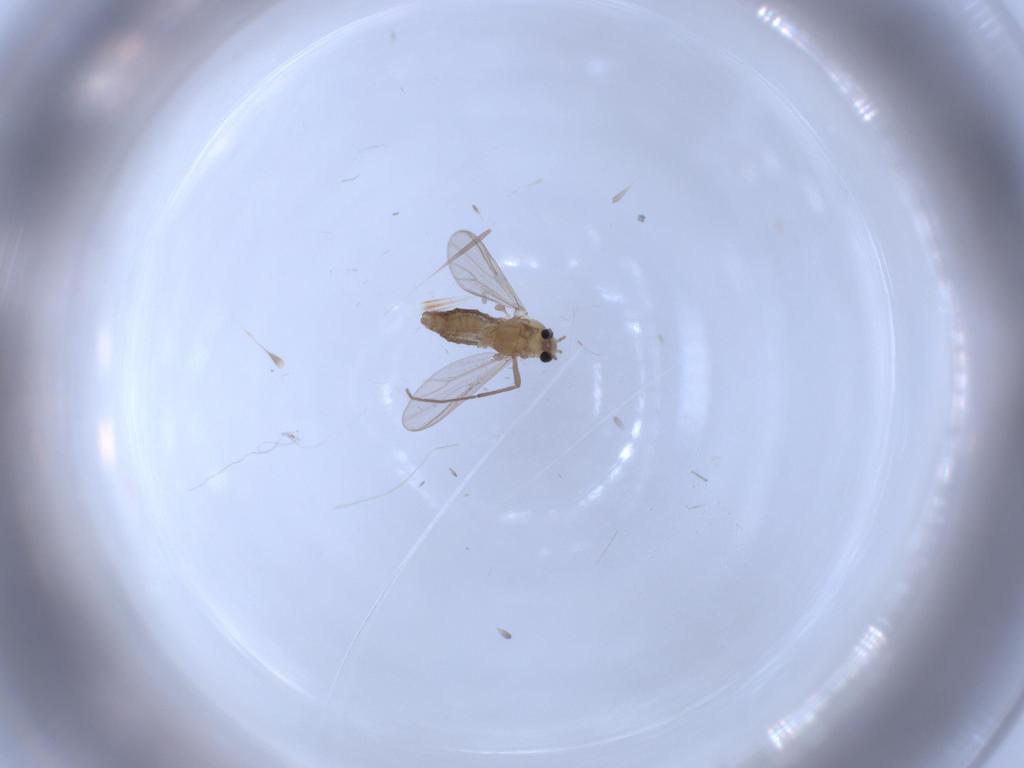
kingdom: Animalia
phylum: Arthropoda
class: Insecta
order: Diptera
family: Chironomidae
